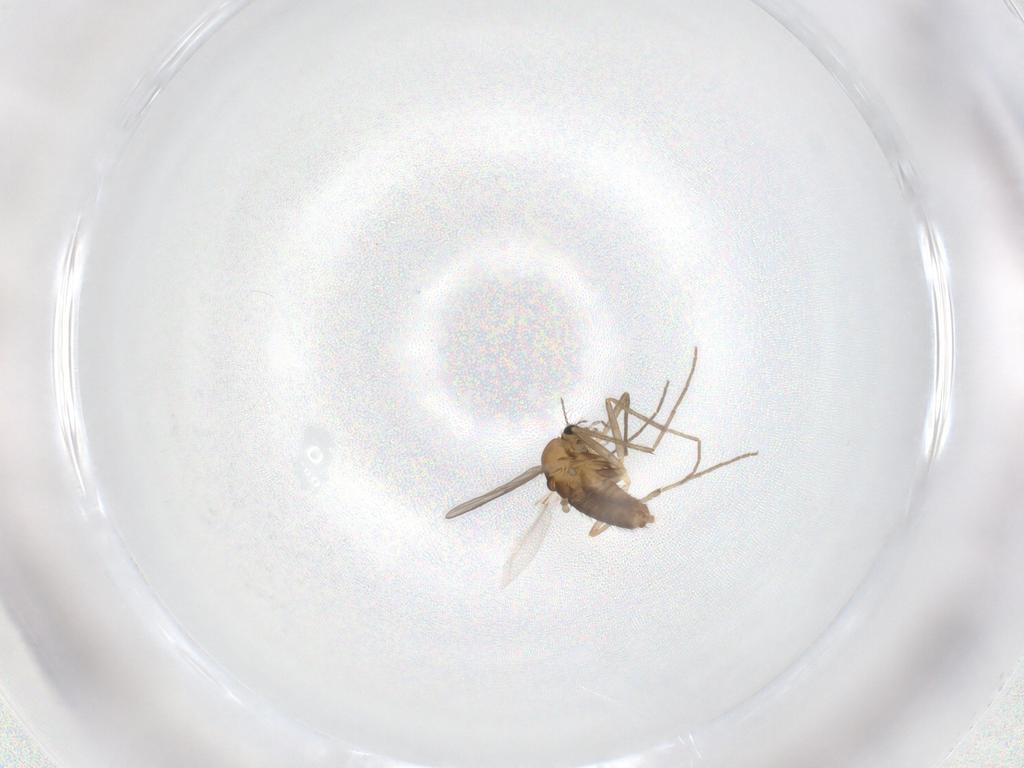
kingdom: Animalia
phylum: Arthropoda
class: Insecta
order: Diptera
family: Chironomidae
